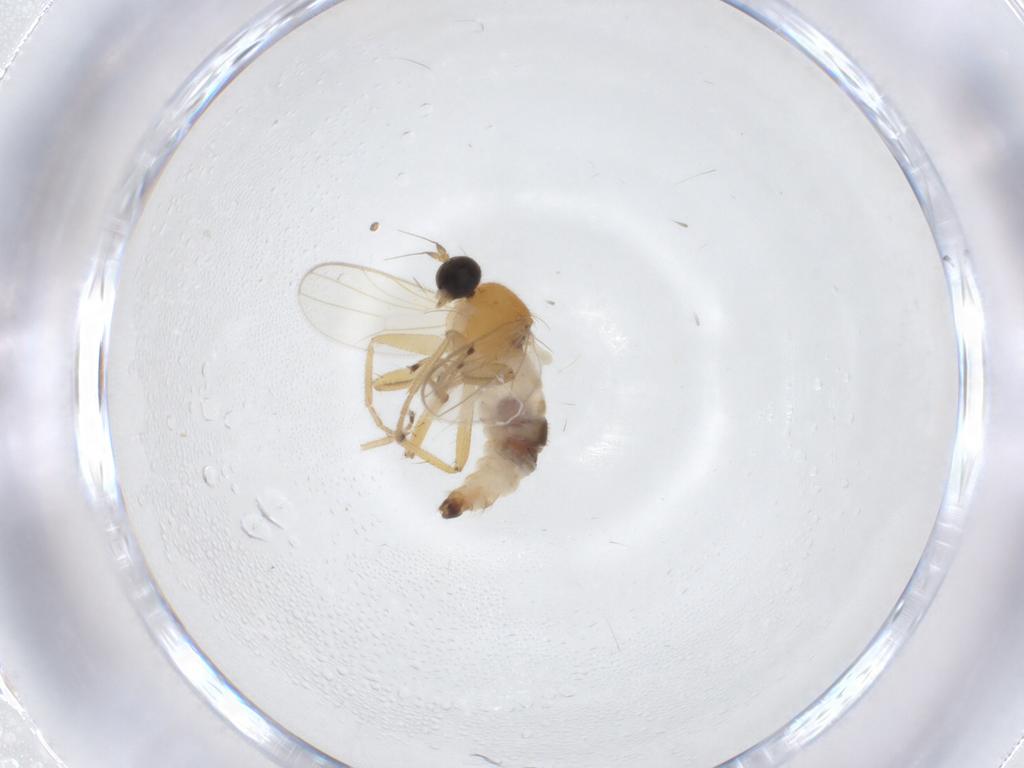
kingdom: Animalia
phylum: Arthropoda
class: Insecta
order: Diptera
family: Hybotidae
